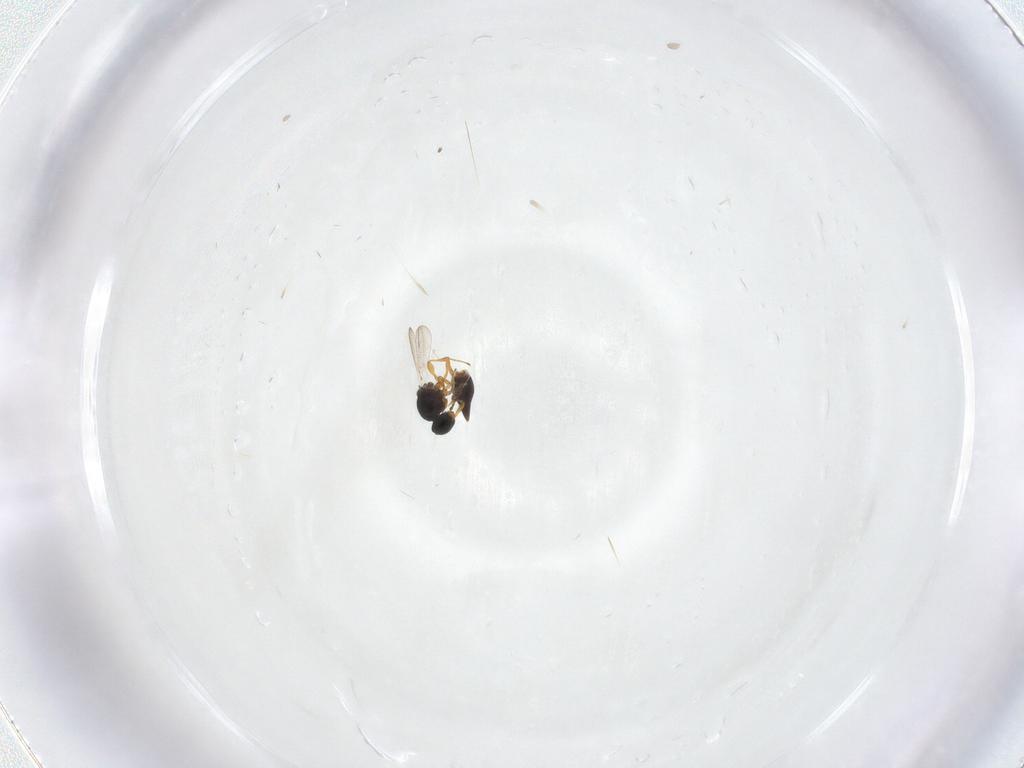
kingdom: Animalia
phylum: Arthropoda
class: Insecta
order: Hymenoptera
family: Platygastridae
